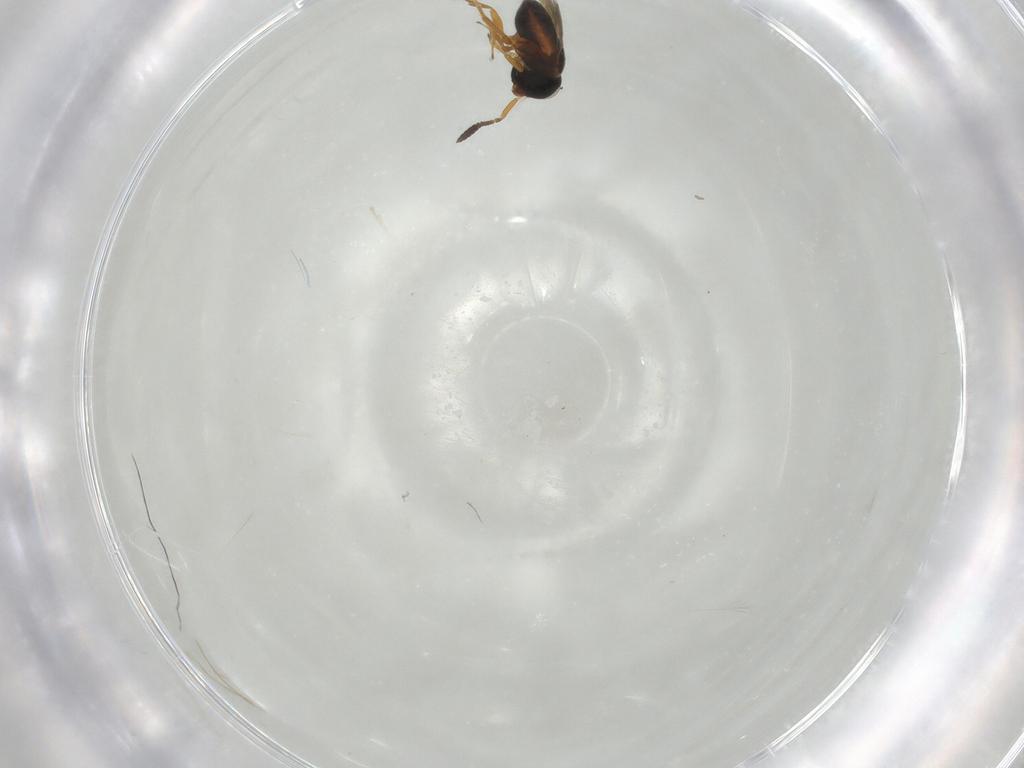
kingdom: Animalia
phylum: Arthropoda
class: Insecta
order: Hymenoptera
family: Scelionidae
